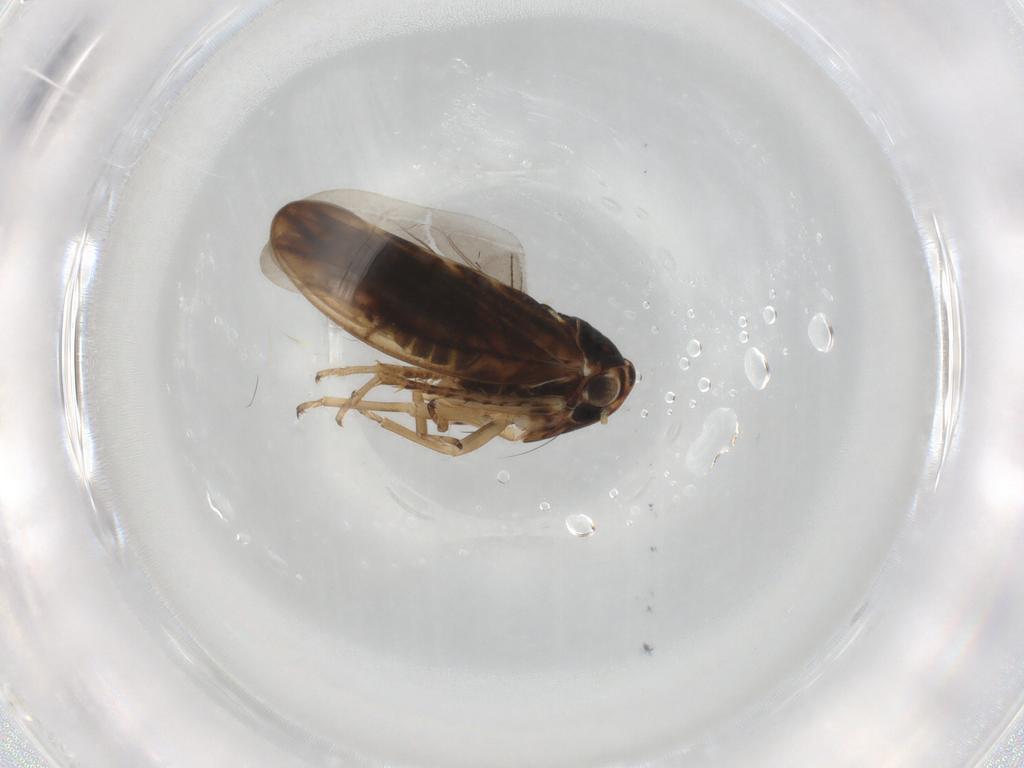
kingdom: Animalia
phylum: Arthropoda
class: Insecta
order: Hemiptera
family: Cicadellidae
